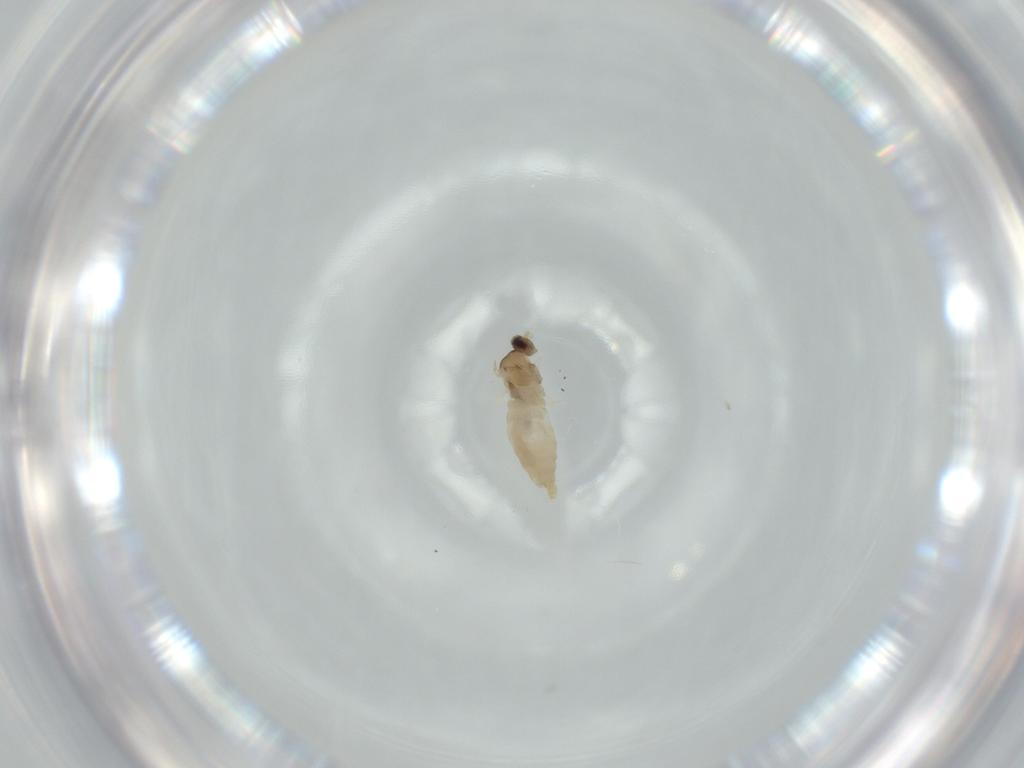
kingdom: Animalia
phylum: Arthropoda
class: Insecta
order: Diptera
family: Cecidomyiidae
